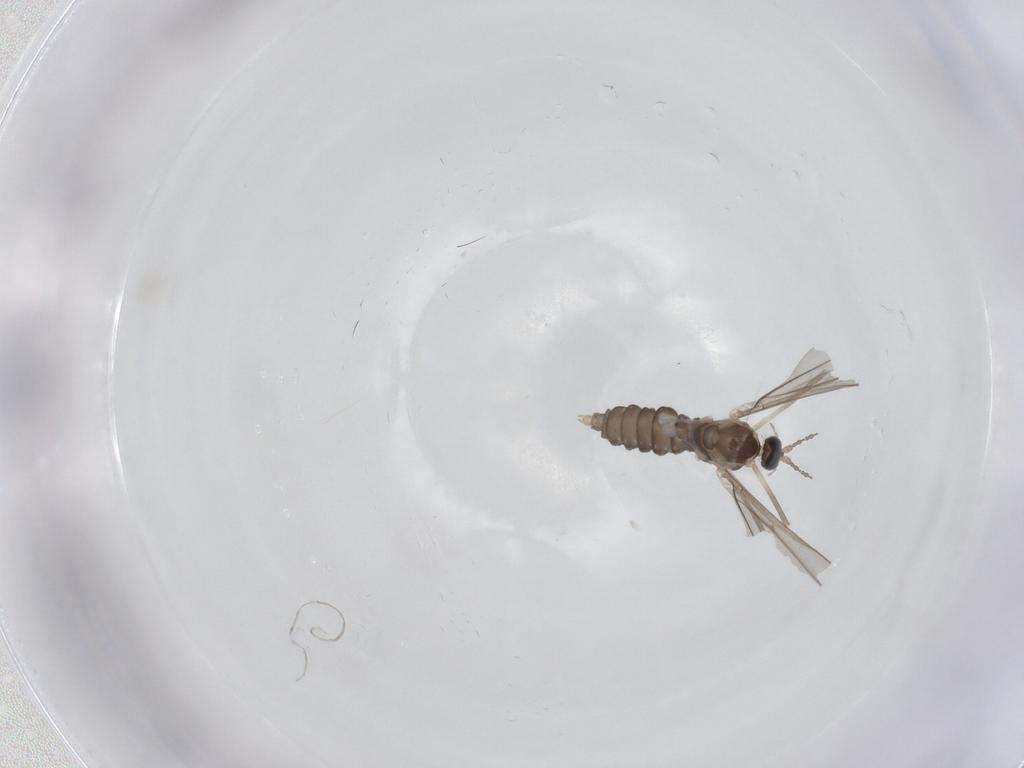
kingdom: Animalia
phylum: Arthropoda
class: Insecta
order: Diptera
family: Cecidomyiidae
